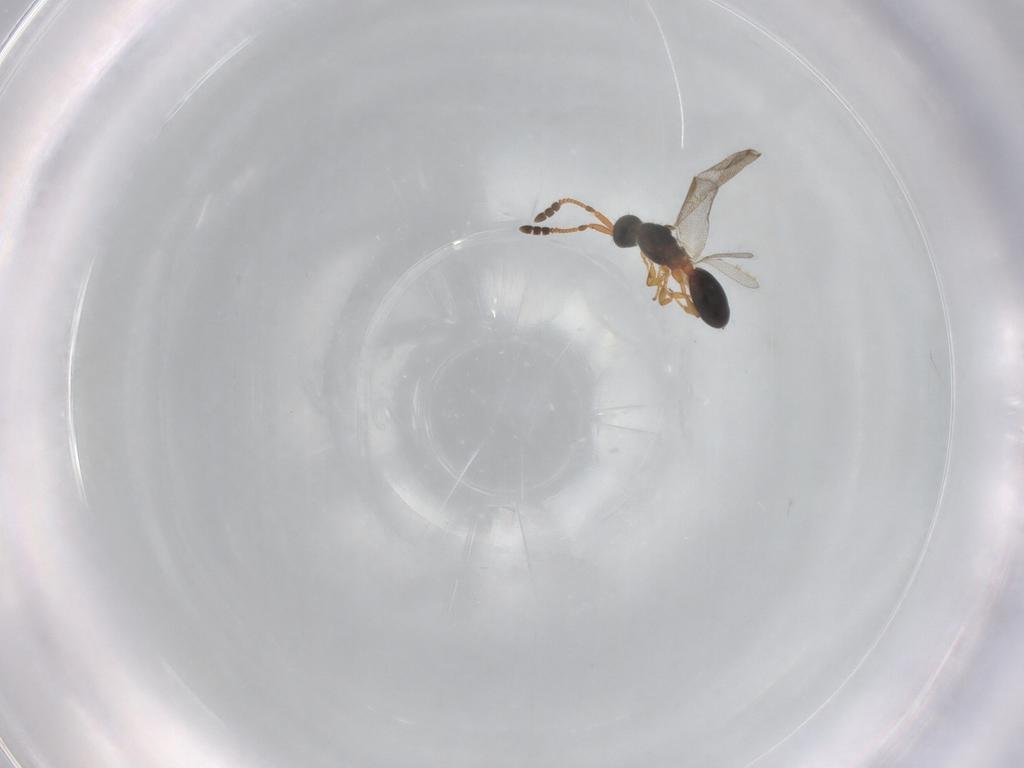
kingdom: Animalia
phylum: Arthropoda
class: Insecta
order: Hymenoptera
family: Diapriidae
